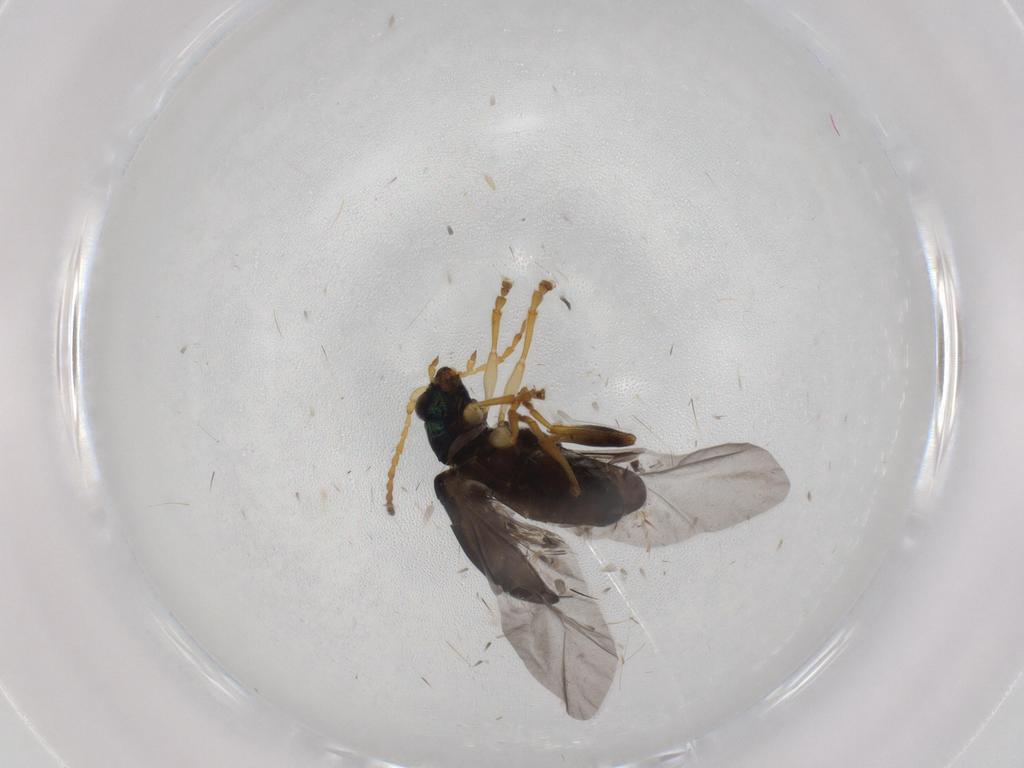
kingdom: Animalia
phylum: Arthropoda
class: Insecta
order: Coleoptera
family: Chrysomelidae
